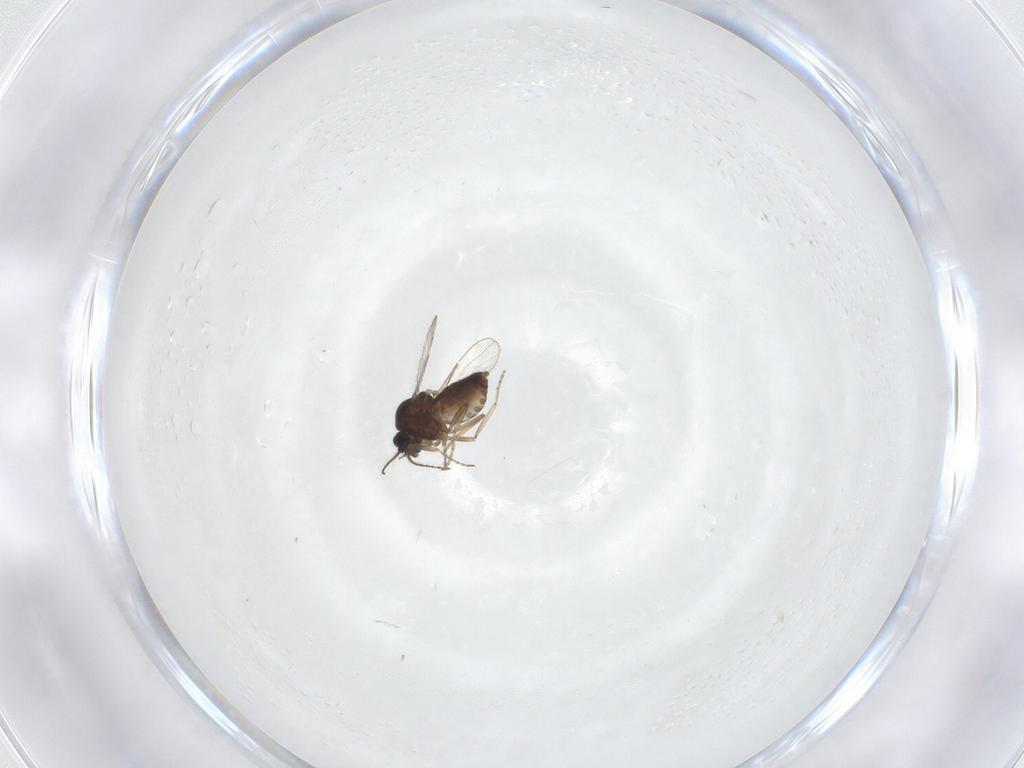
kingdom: Animalia
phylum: Arthropoda
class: Insecta
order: Diptera
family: Ceratopogonidae
